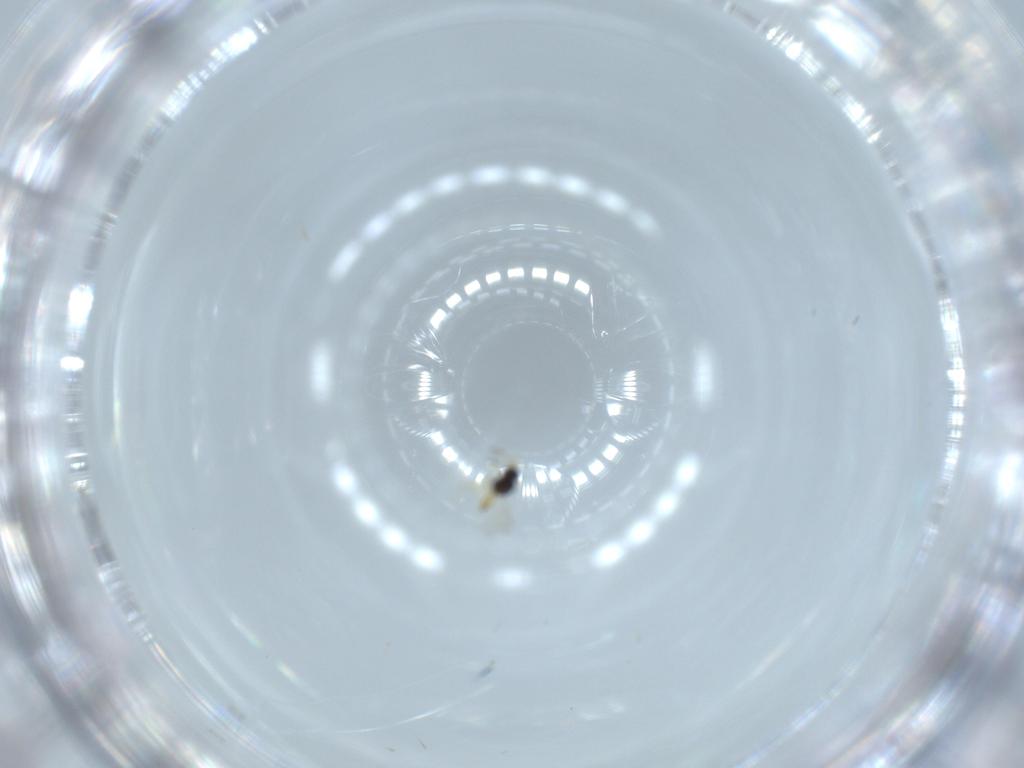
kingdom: Animalia
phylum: Arthropoda
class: Insecta
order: Hymenoptera
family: Scelionidae
